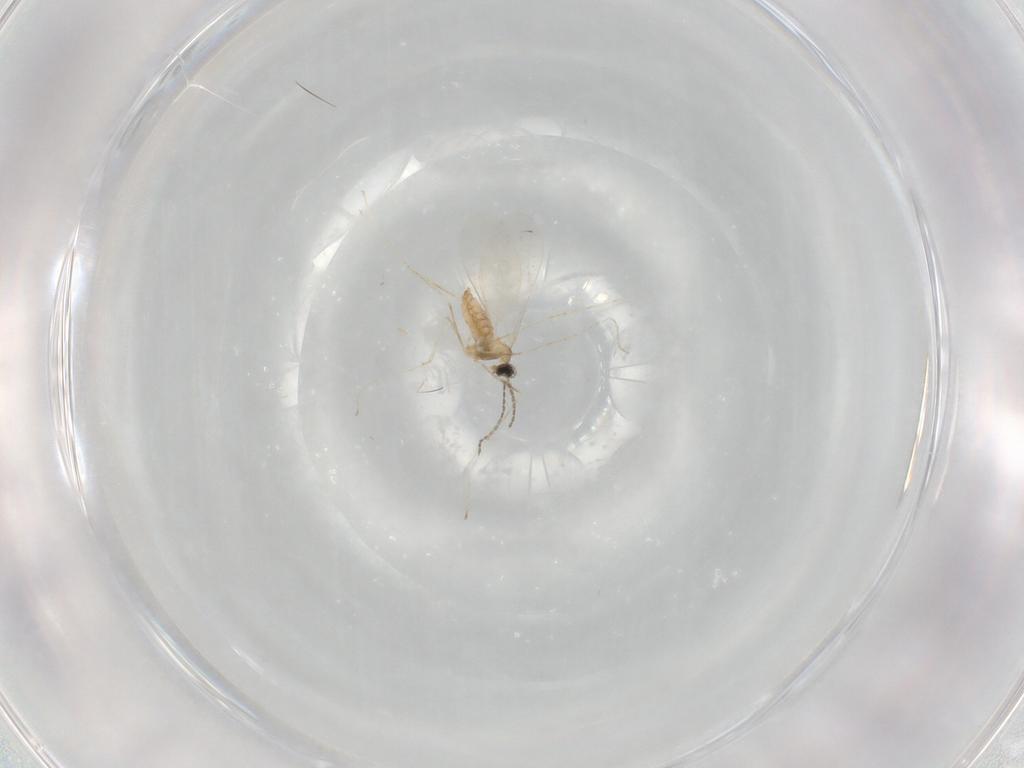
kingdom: Animalia
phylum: Arthropoda
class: Insecta
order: Diptera
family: Cecidomyiidae
